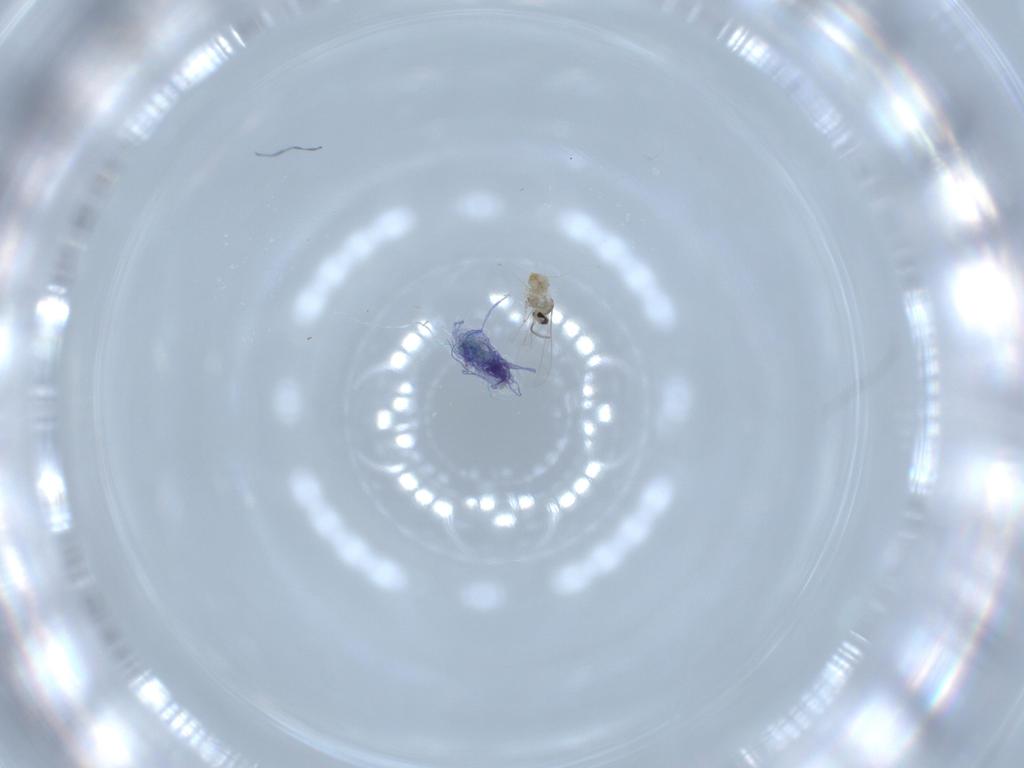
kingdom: Animalia
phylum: Arthropoda
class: Insecta
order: Diptera
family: Cecidomyiidae
